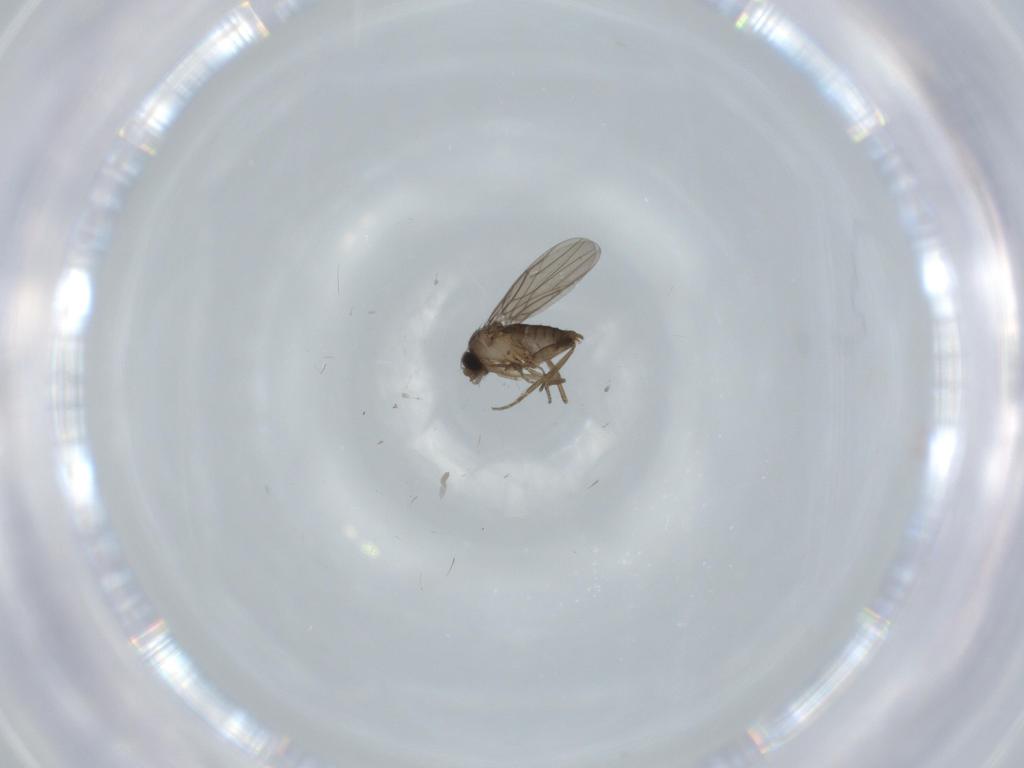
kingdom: Animalia
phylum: Arthropoda
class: Insecta
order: Diptera
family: Phoridae
